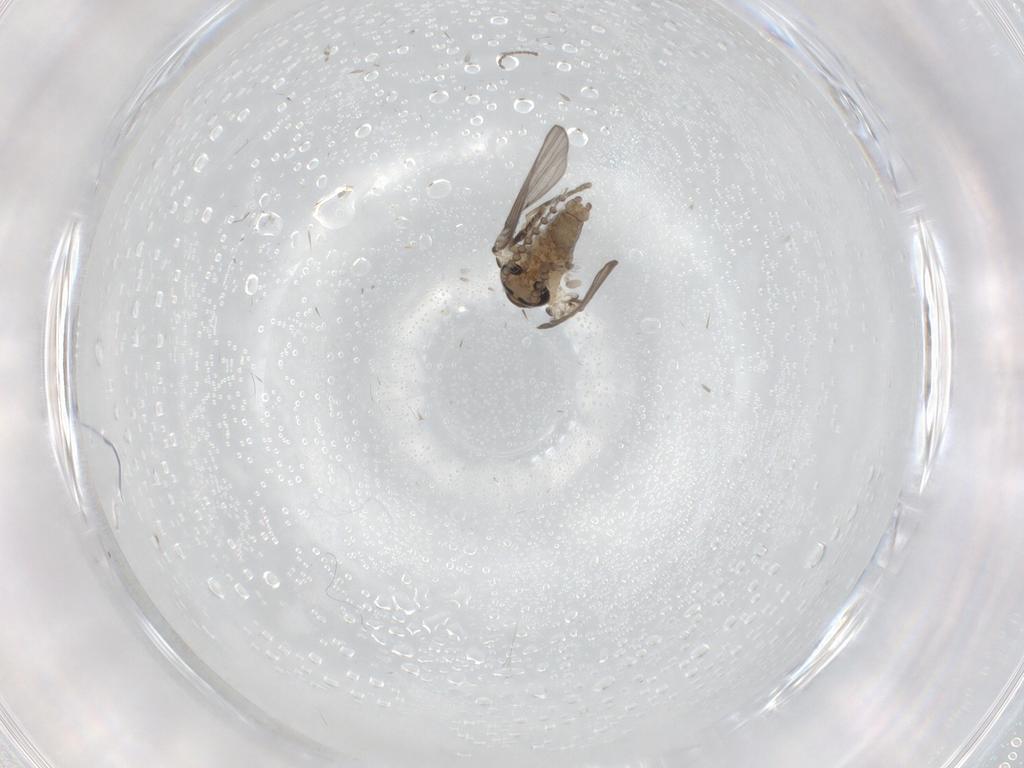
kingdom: Animalia
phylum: Arthropoda
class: Insecta
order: Diptera
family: Psychodidae
